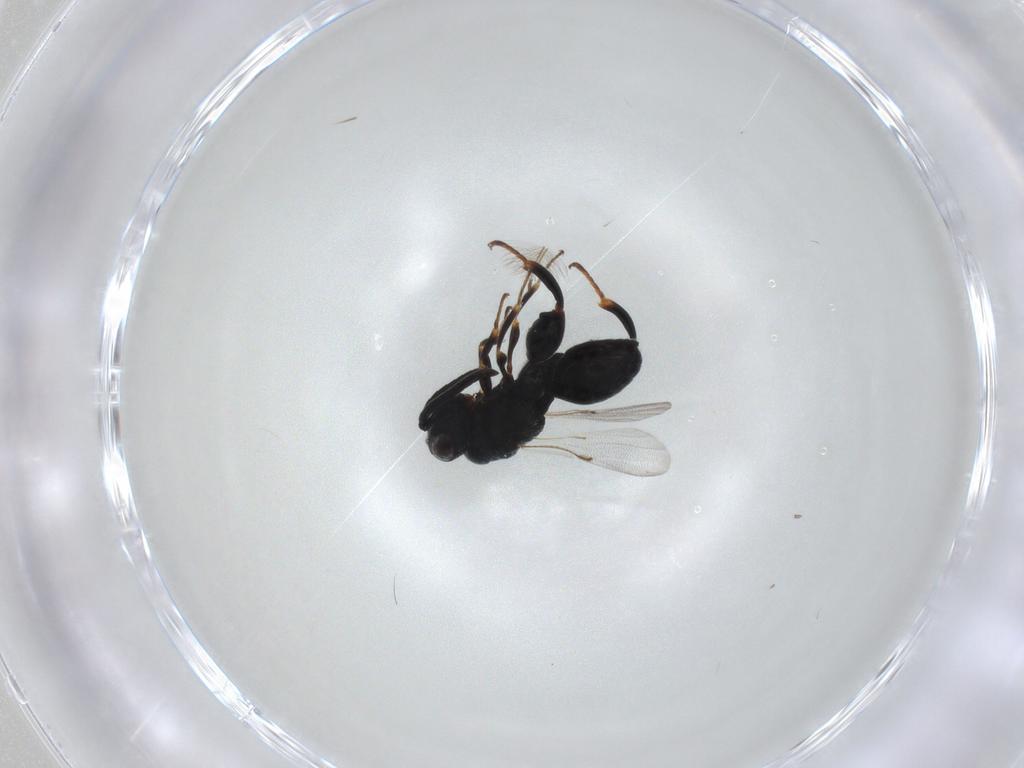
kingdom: Animalia
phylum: Arthropoda
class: Insecta
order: Hymenoptera
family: Chalcididae
